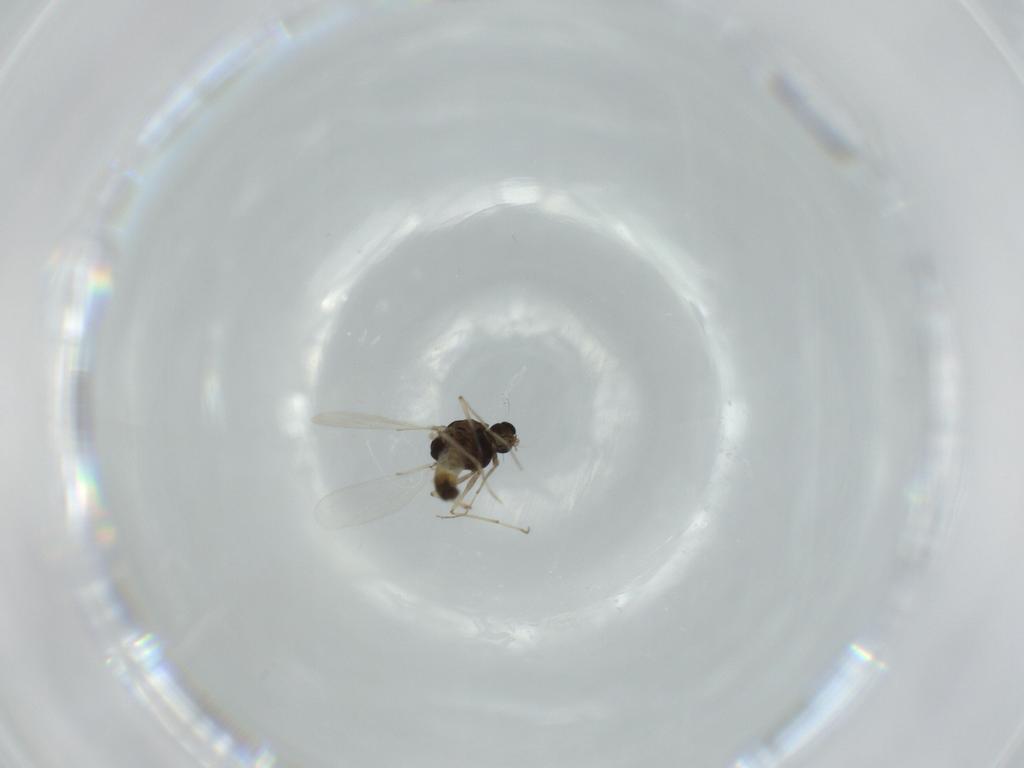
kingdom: Animalia
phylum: Arthropoda
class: Insecta
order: Diptera
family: Chironomidae
